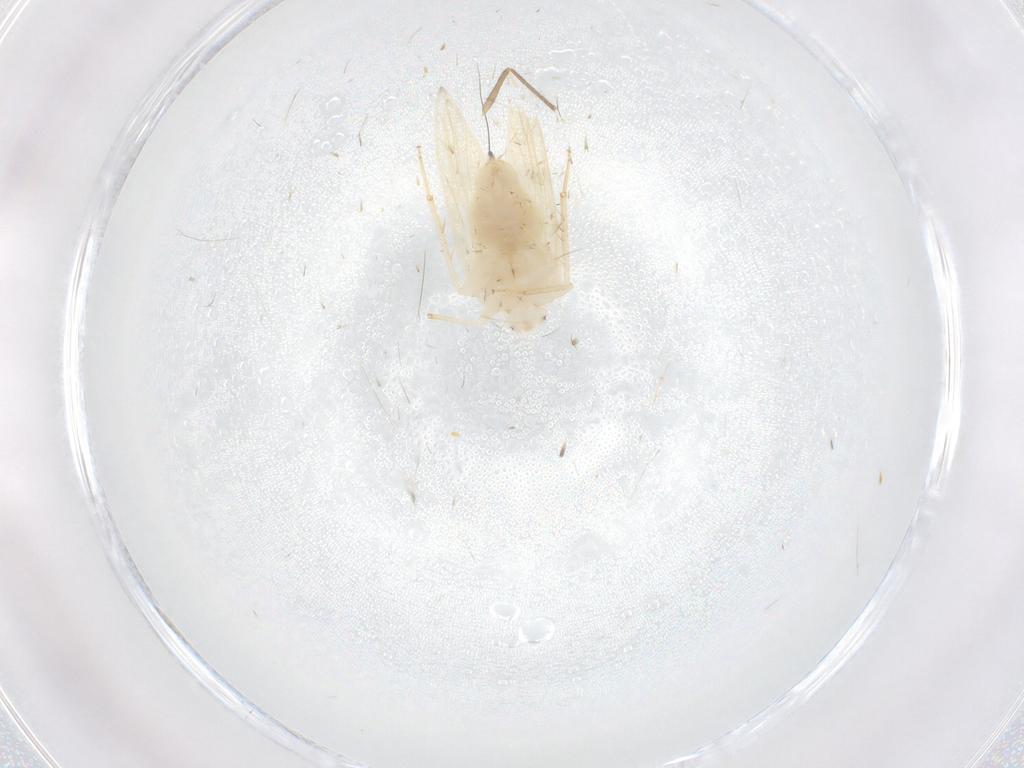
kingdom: Animalia
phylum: Arthropoda
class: Insecta
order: Psocodea
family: Lepidopsocidae
